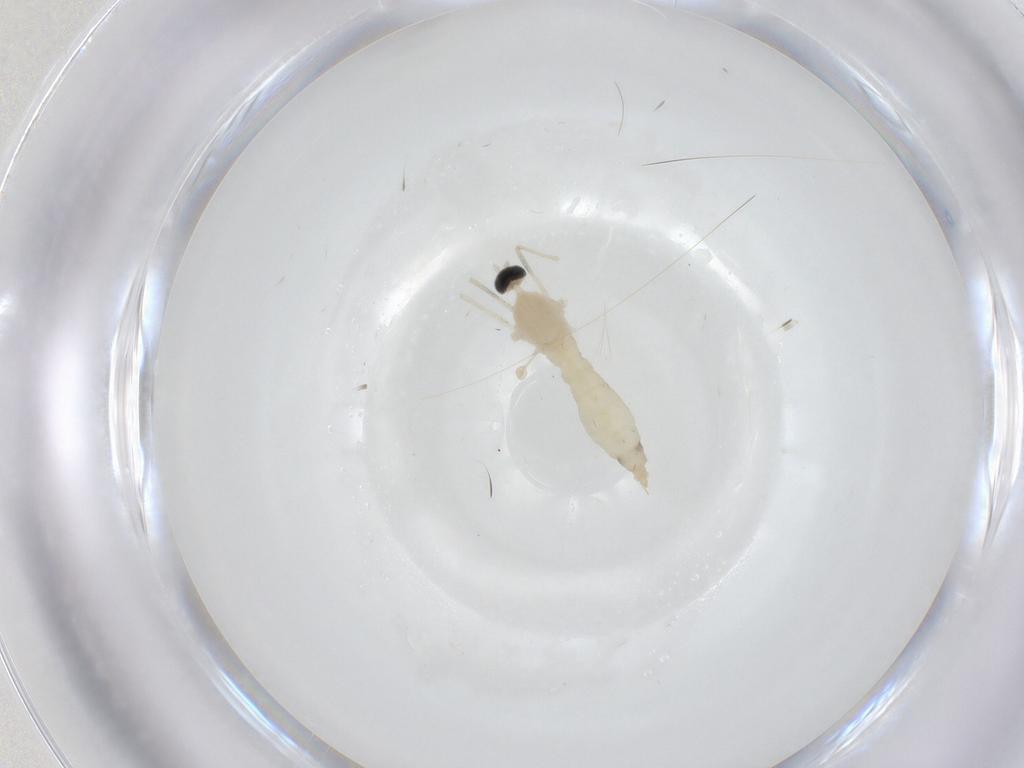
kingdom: Animalia
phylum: Arthropoda
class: Insecta
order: Diptera
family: Cecidomyiidae
